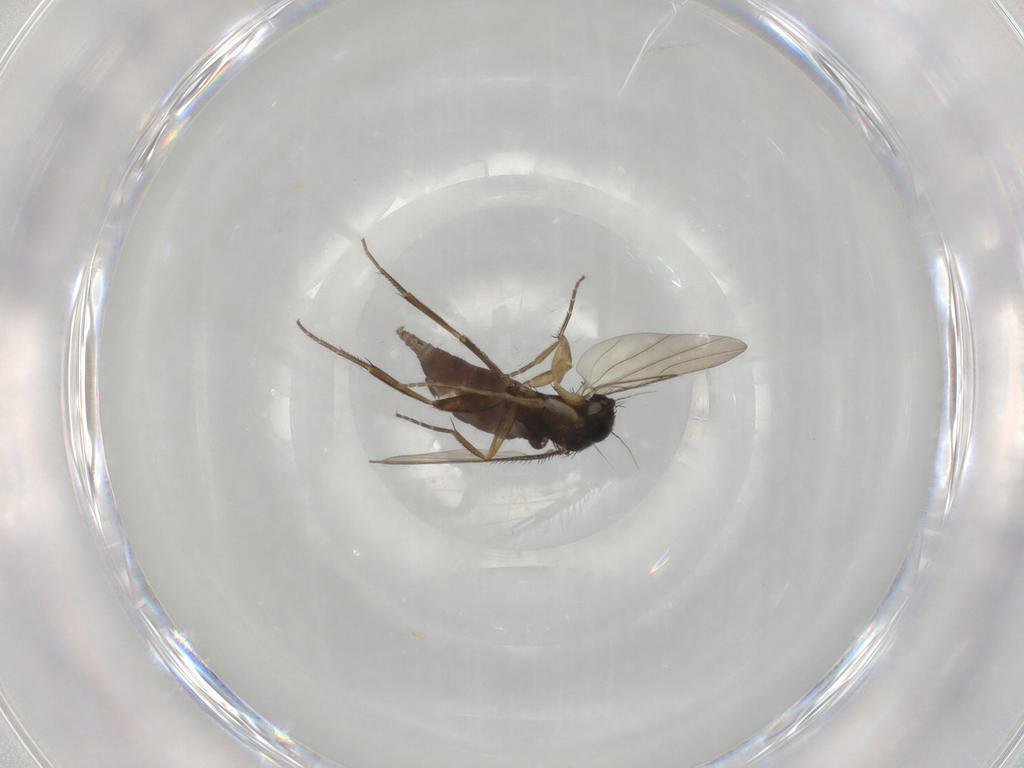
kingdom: Animalia
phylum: Arthropoda
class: Insecta
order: Diptera
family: Phoridae
